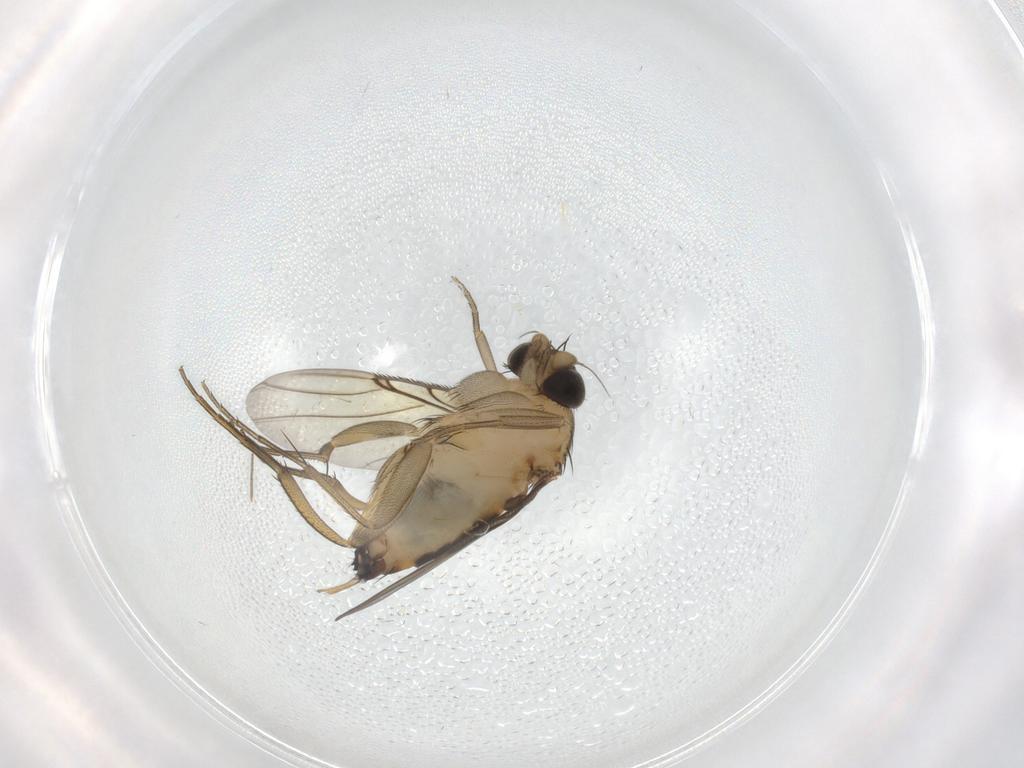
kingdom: Animalia
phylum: Arthropoda
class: Insecta
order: Diptera
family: Phoridae
